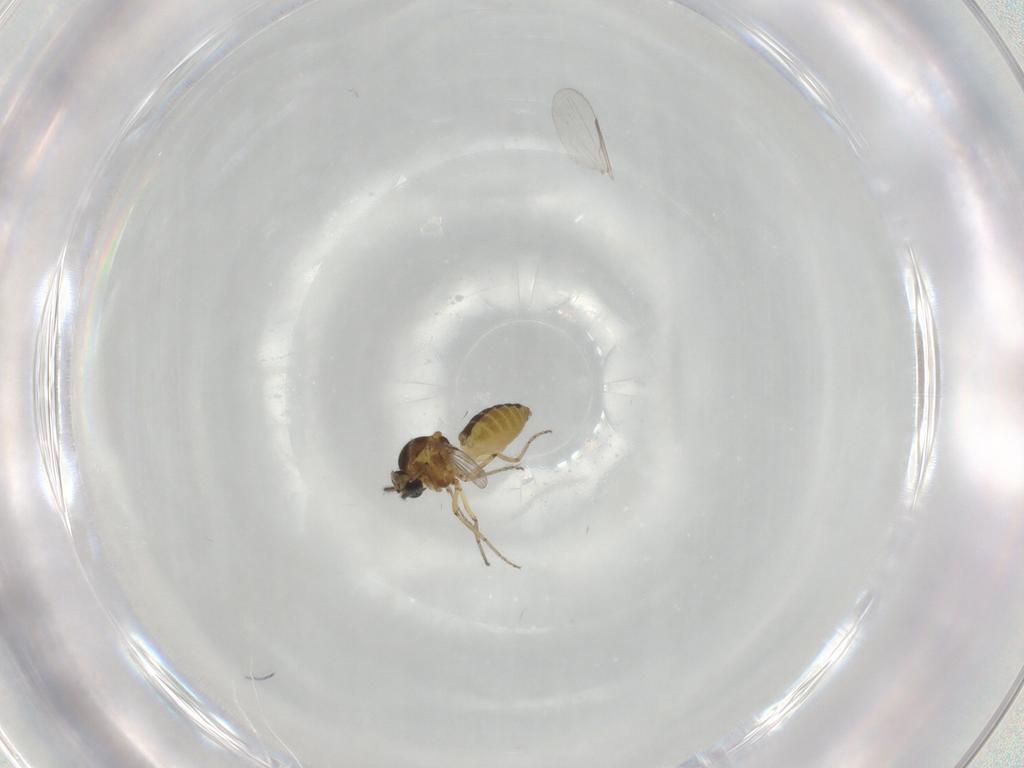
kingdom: Animalia
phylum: Arthropoda
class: Insecta
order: Diptera
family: Ceratopogonidae
